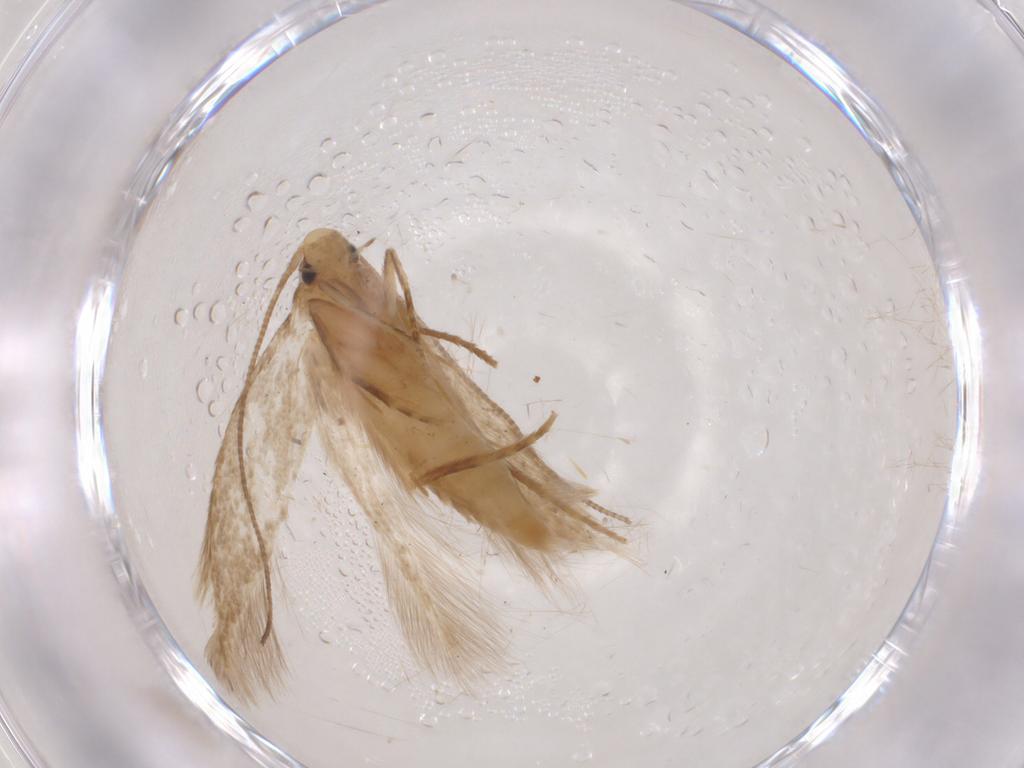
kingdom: Animalia
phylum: Arthropoda
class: Insecta
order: Lepidoptera
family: Tineidae
